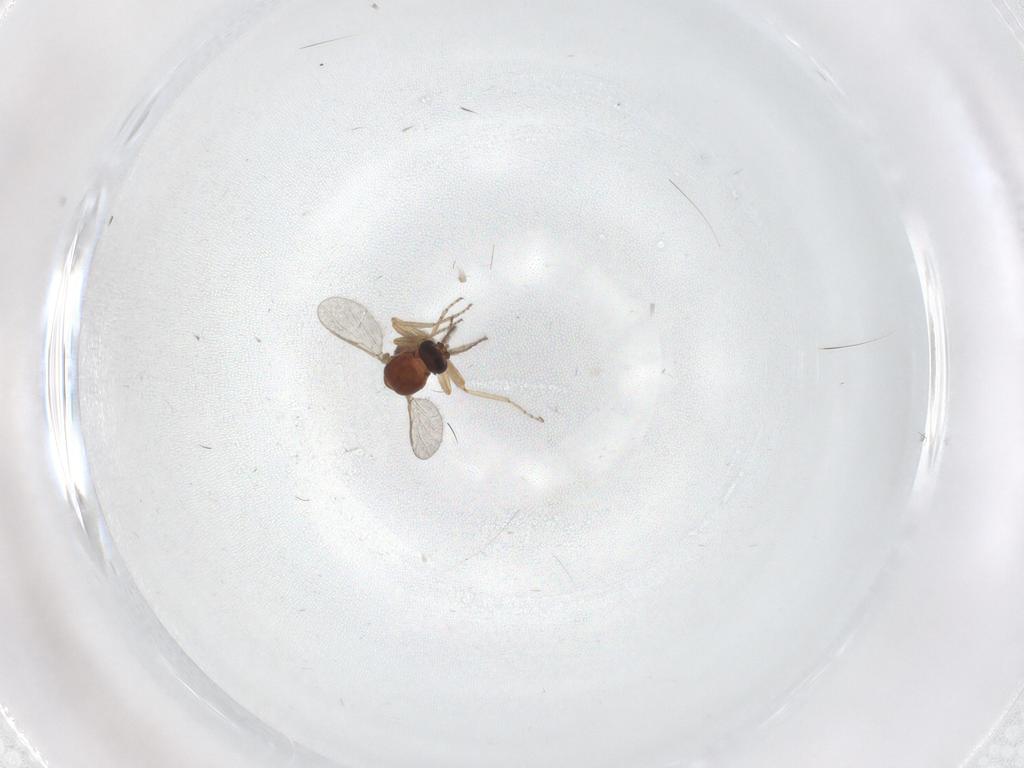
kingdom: Animalia
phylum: Arthropoda
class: Insecta
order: Diptera
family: Ceratopogonidae
